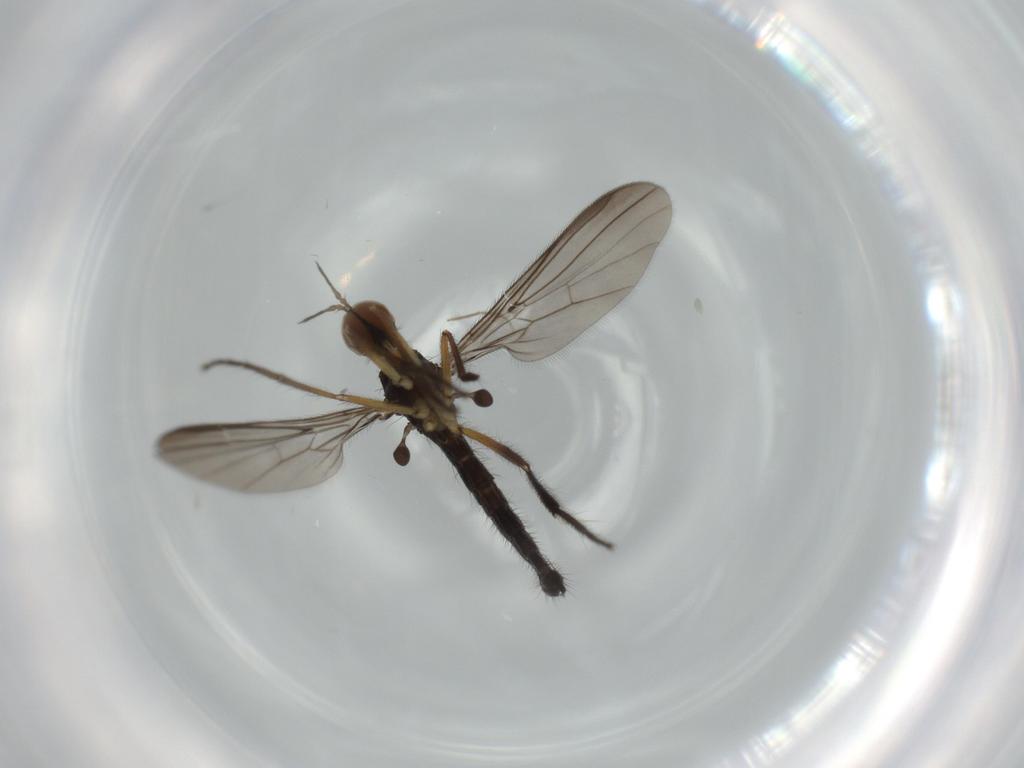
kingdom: Animalia
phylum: Arthropoda
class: Insecta
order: Diptera
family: Empididae
